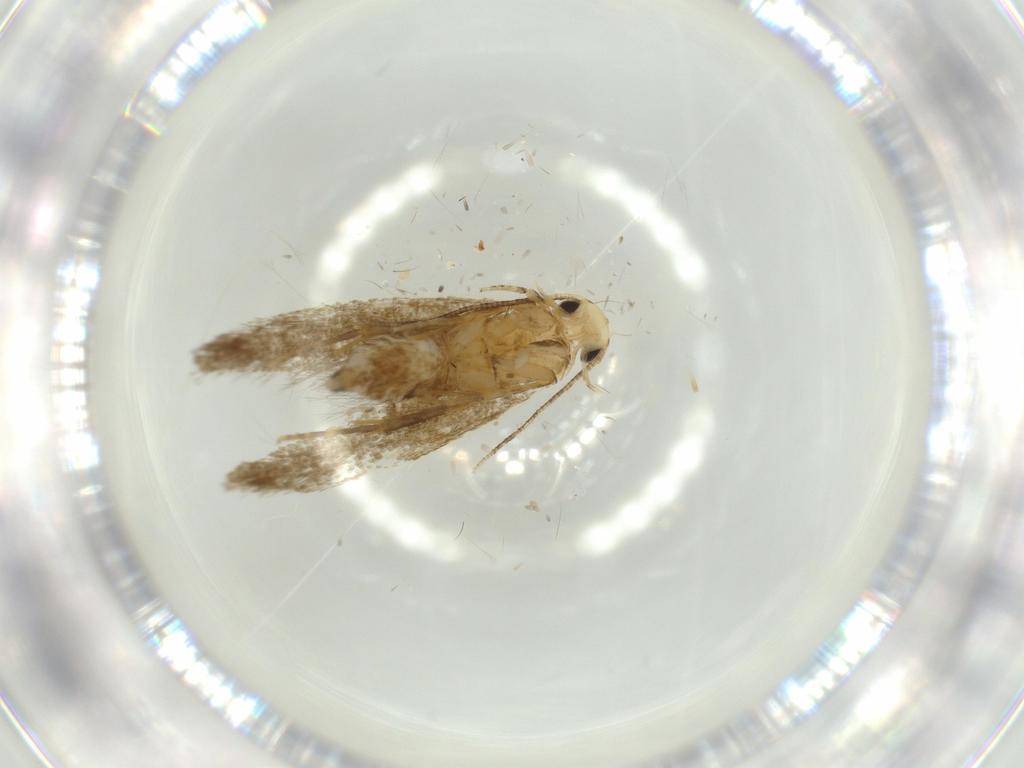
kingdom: Animalia
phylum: Arthropoda
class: Insecta
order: Lepidoptera
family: Tineidae
